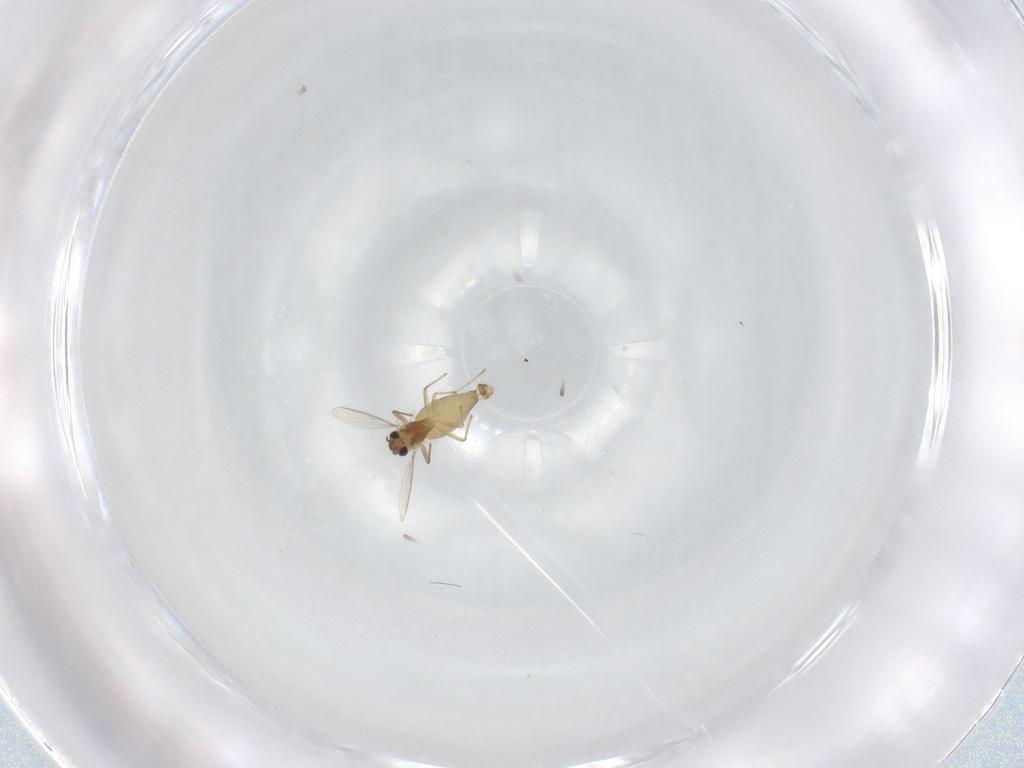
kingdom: Animalia
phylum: Arthropoda
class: Insecta
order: Diptera
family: Chironomidae
